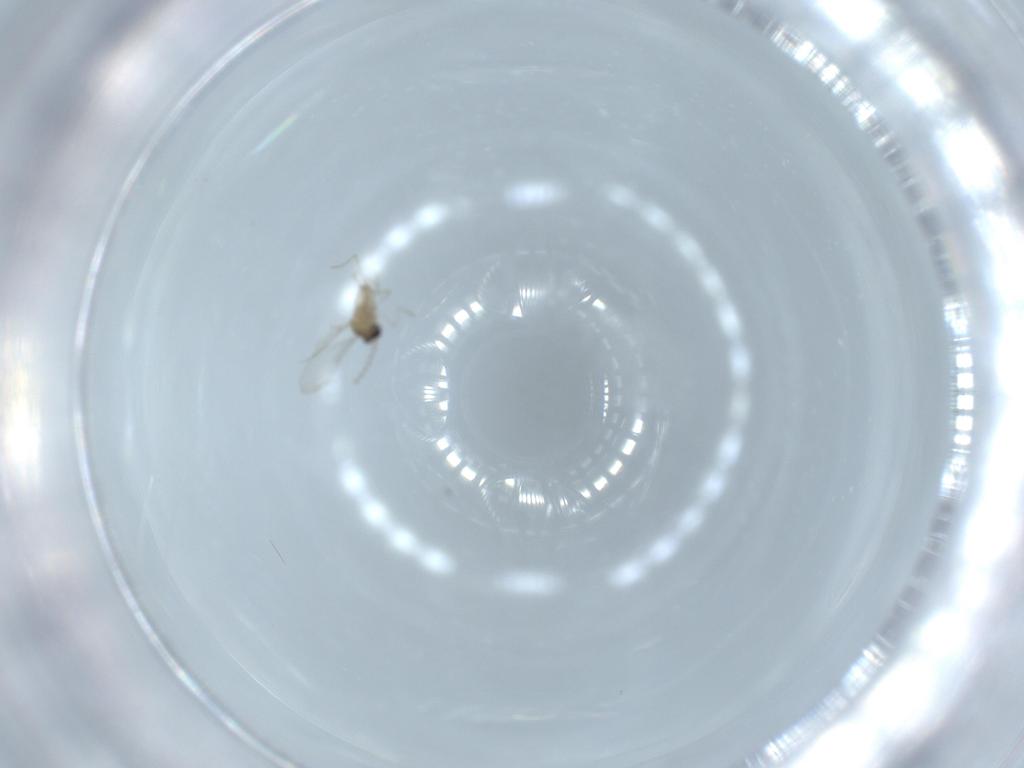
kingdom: Animalia
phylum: Arthropoda
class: Insecta
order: Diptera
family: Cecidomyiidae
